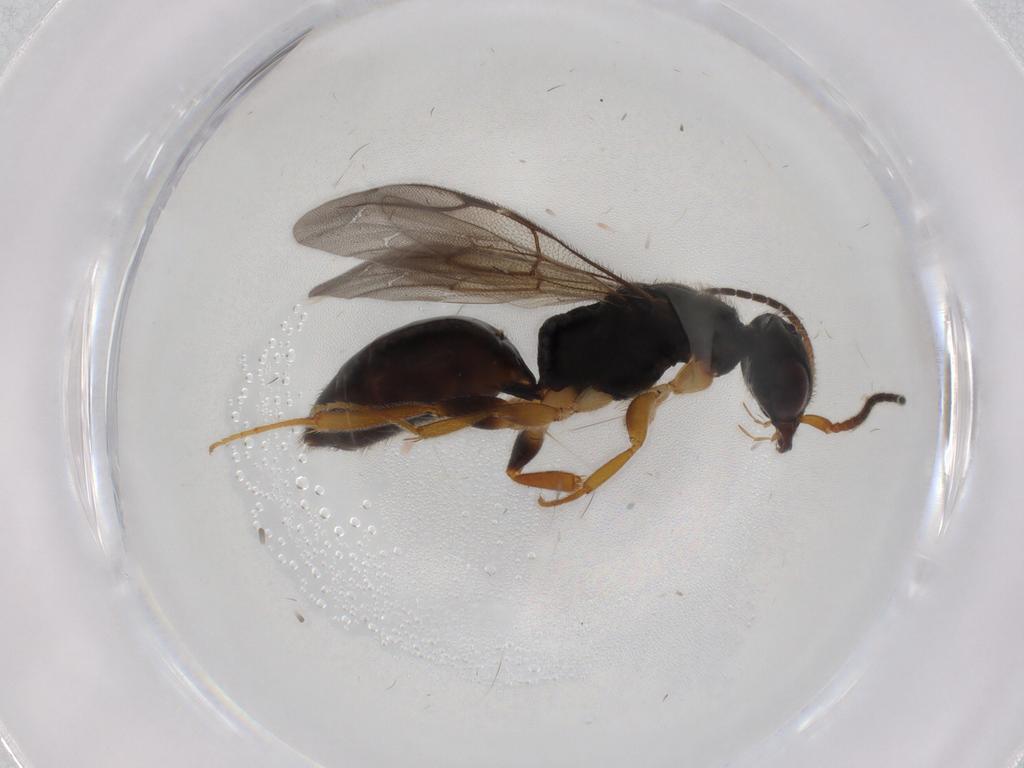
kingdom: Animalia
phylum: Arthropoda
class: Insecta
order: Hymenoptera
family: Bethylidae
